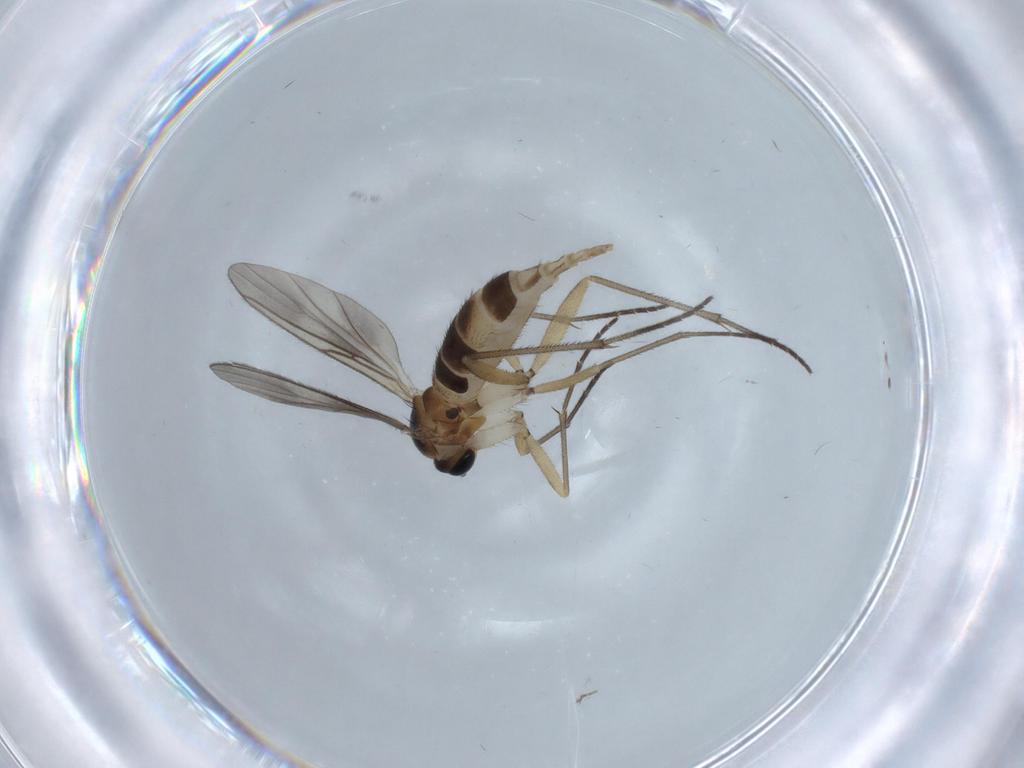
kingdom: Animalia
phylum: Arthropoda
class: Insecta
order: Diptera
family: Sciaridae
